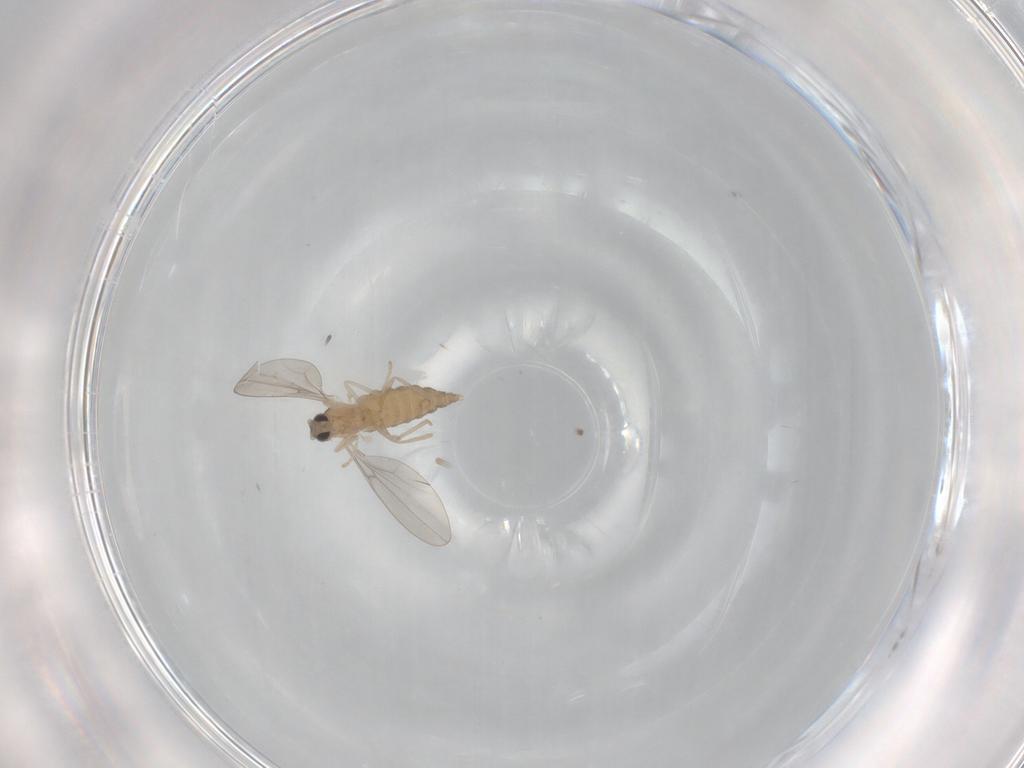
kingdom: Animalia
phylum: Arthropoda
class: Insecta
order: Diptera
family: Cecidomyiidae
